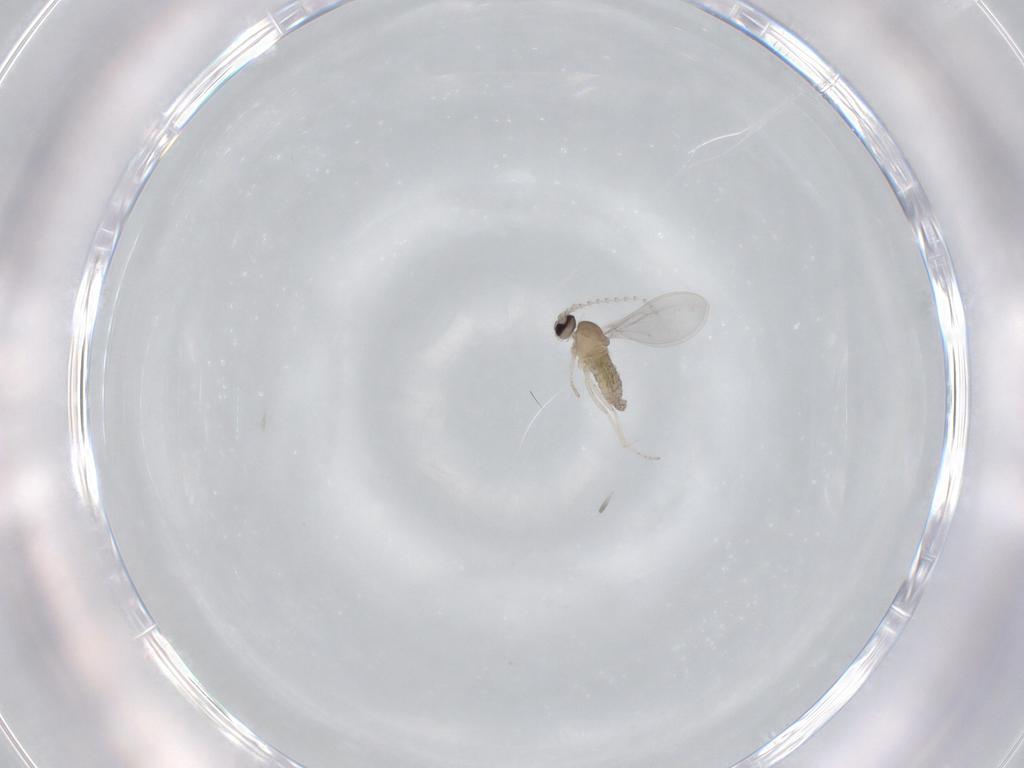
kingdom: Animalia
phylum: Arthropoda
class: Insecta
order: Diptera
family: Cecidomyiidae
